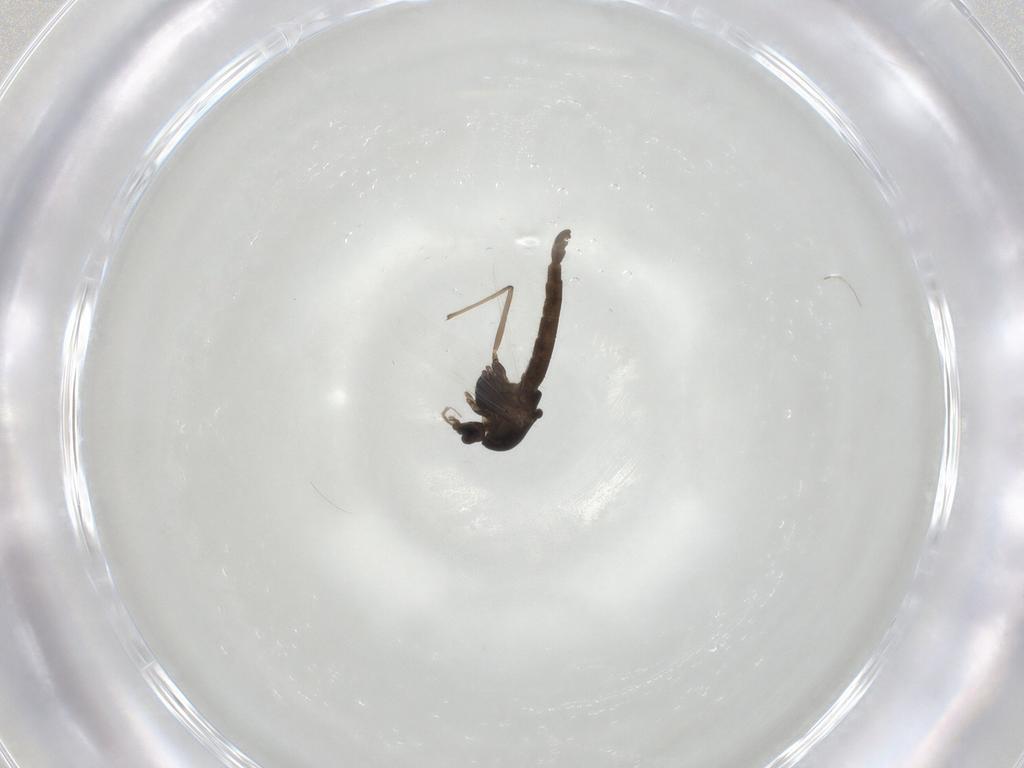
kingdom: Animalia
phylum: Arthropoda
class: Insecta
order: Diptera
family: Chironomidae
